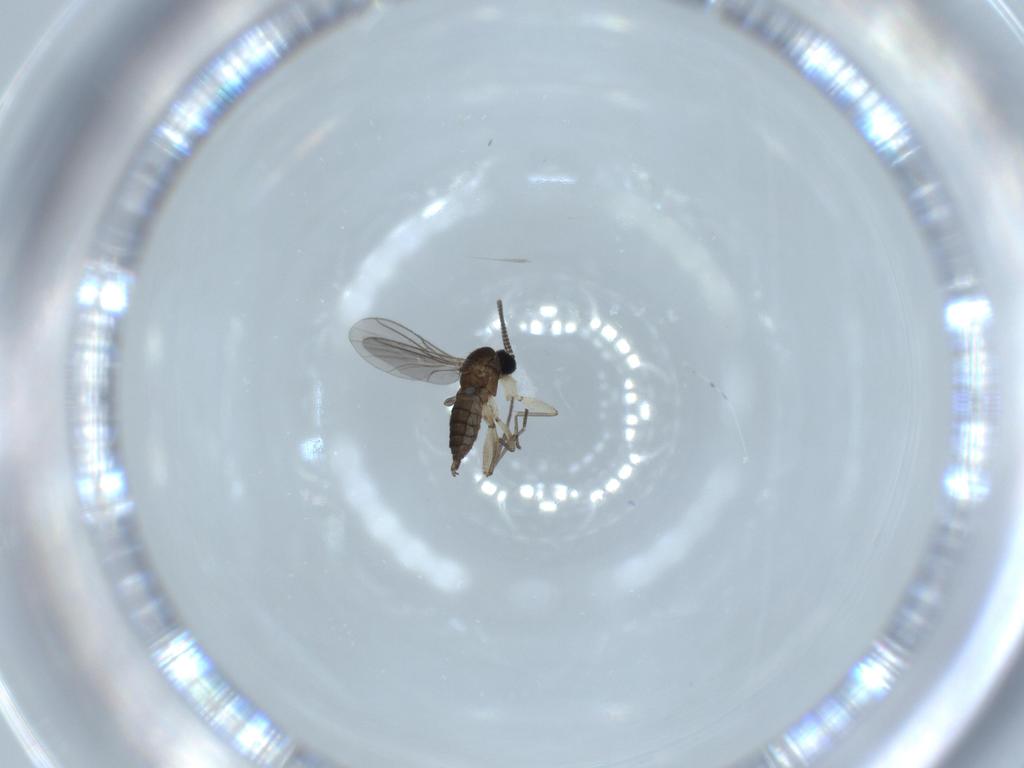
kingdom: Animalia
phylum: Arthropoda
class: Insecta
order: Diptera
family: Sciaridae
